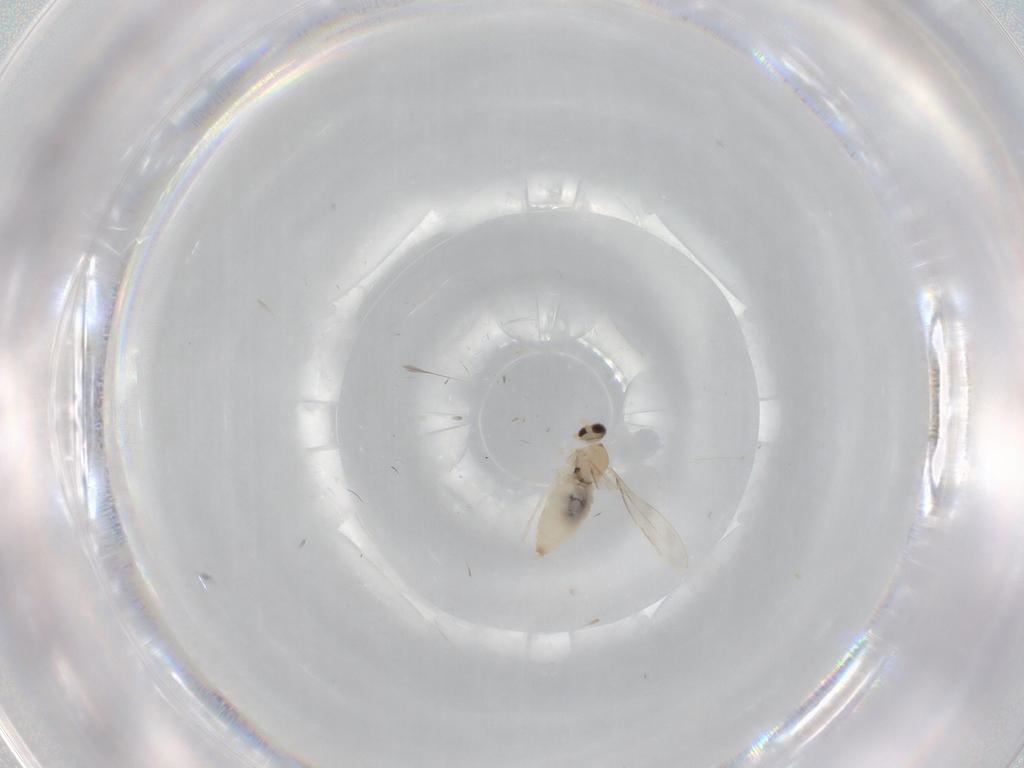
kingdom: Animalia
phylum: Arthropoda
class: Insecta
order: Diptera
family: Cecidomyiidae
